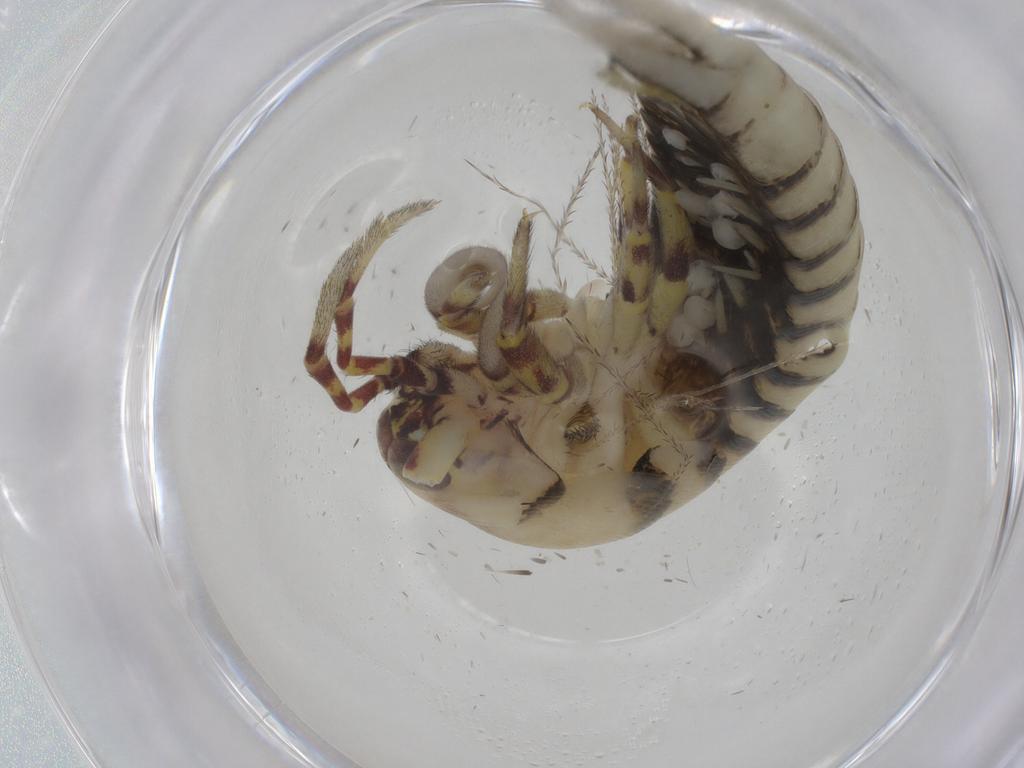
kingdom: Animalia
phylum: Arthropoda
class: Insecta
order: Archaeognatha
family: Meinertellidae
